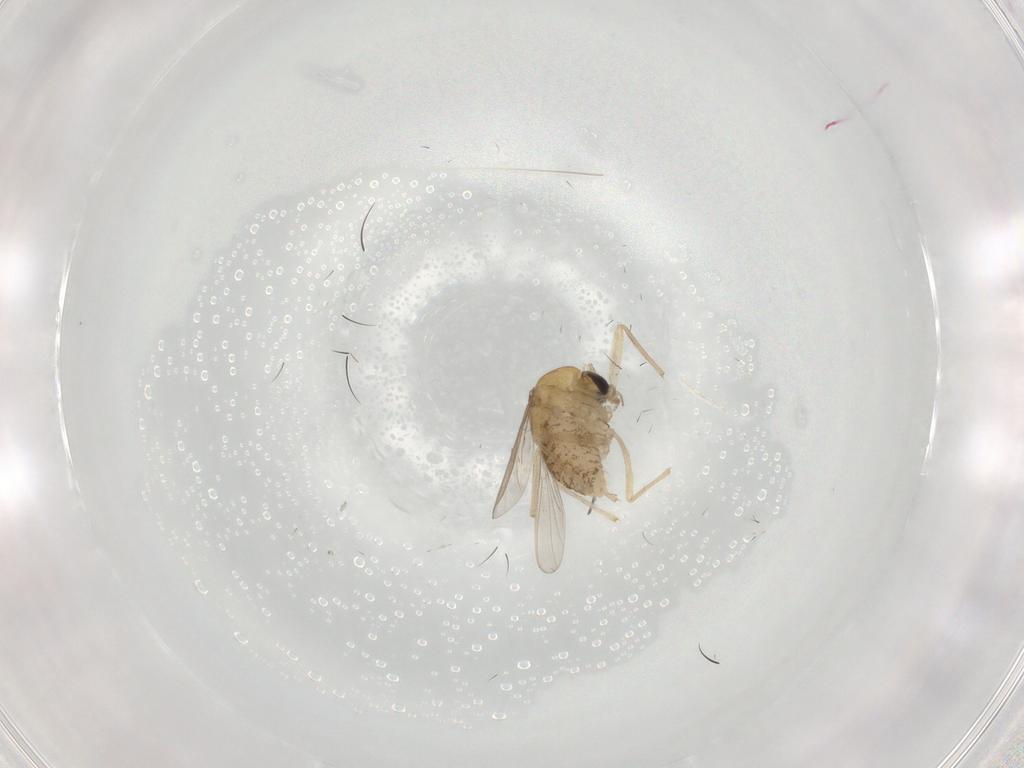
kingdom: Animalia
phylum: Arthropoda
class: Insecta
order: Diptera
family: Chironomidae
